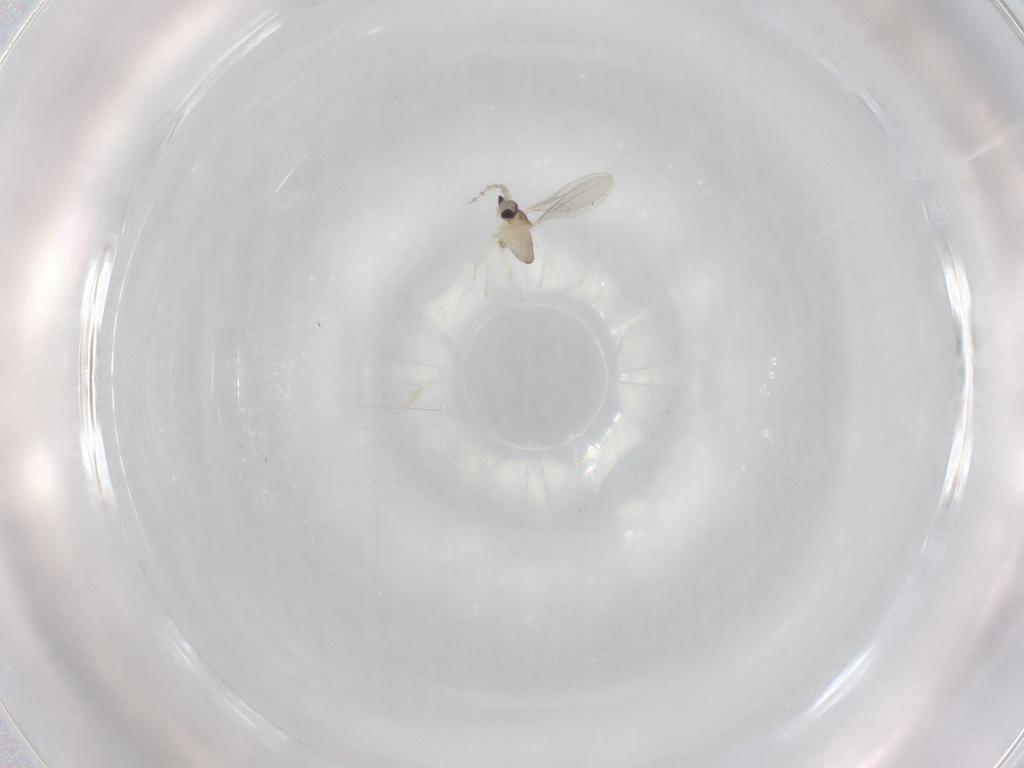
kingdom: Animalia
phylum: Arthropoda
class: Insecta
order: Diptera
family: Cecidomyiidae
